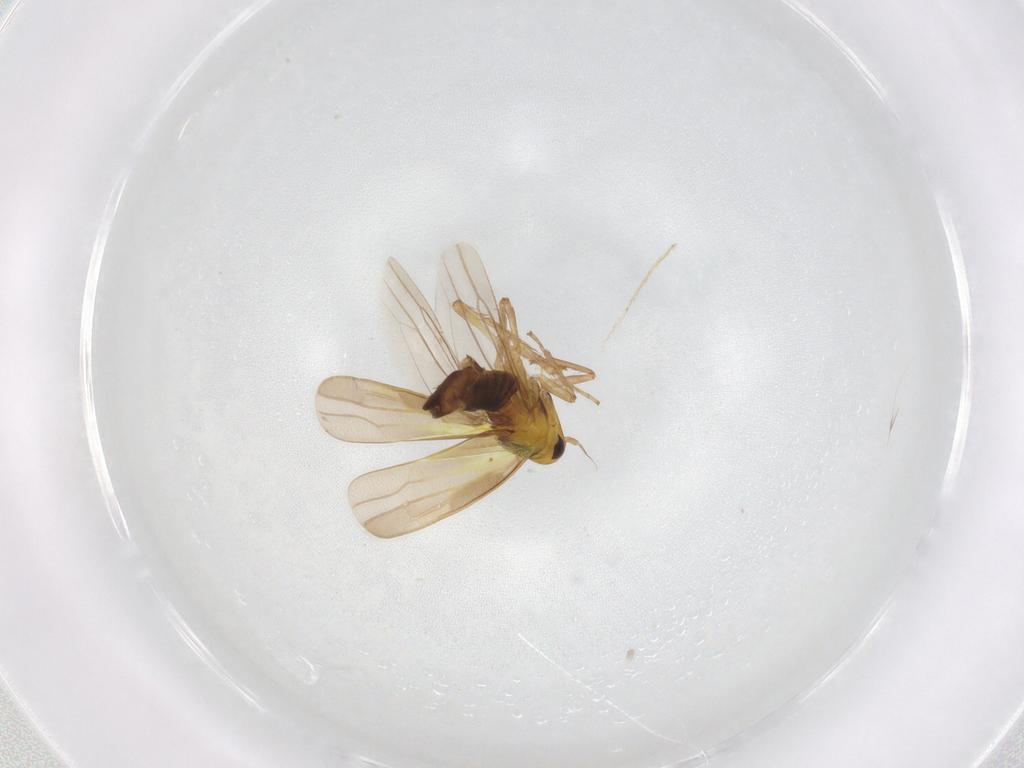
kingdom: Animalia
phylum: Arthropoda
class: Insecta
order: Hemiptera
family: Cicadellidae
